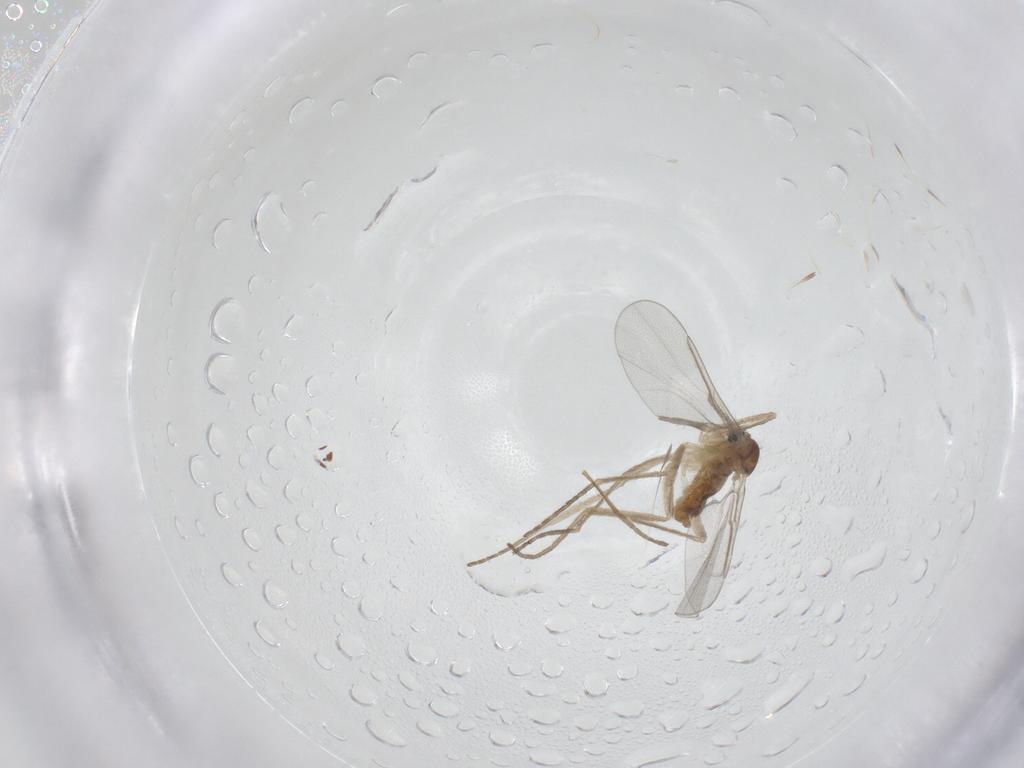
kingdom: Animalia
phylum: Arthropoda
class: Insecta
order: Diptera
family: Cecidomyiidae
